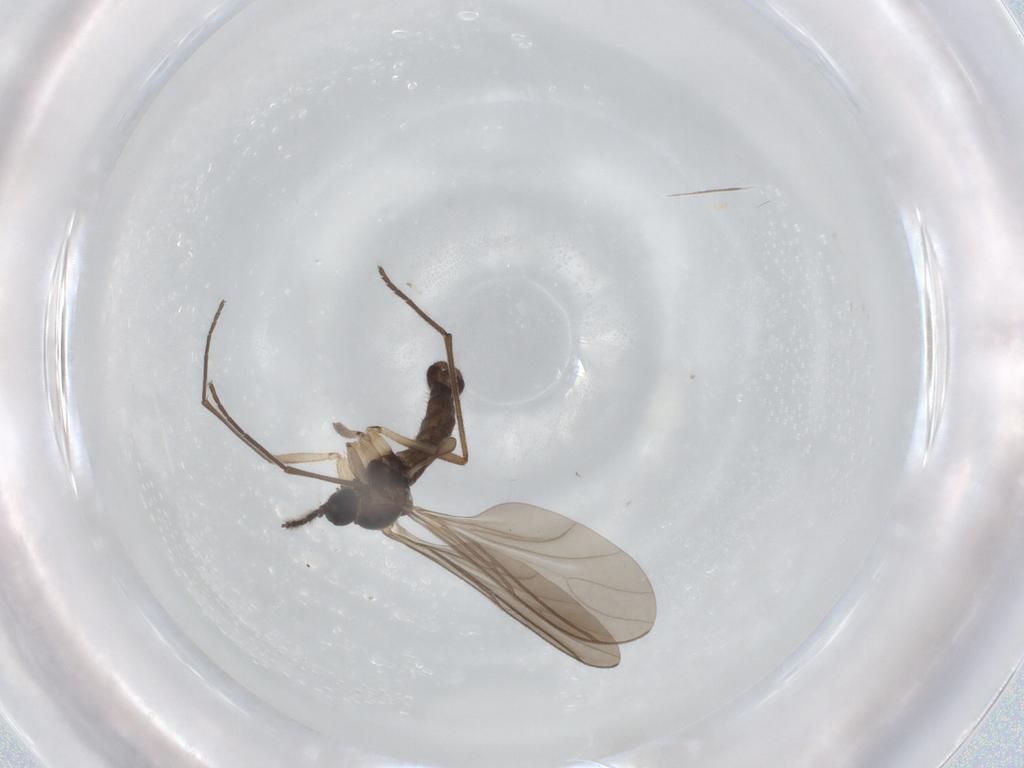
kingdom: Animalia
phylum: Arthropoda
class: Insecta
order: Diptera
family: Sciaridae
